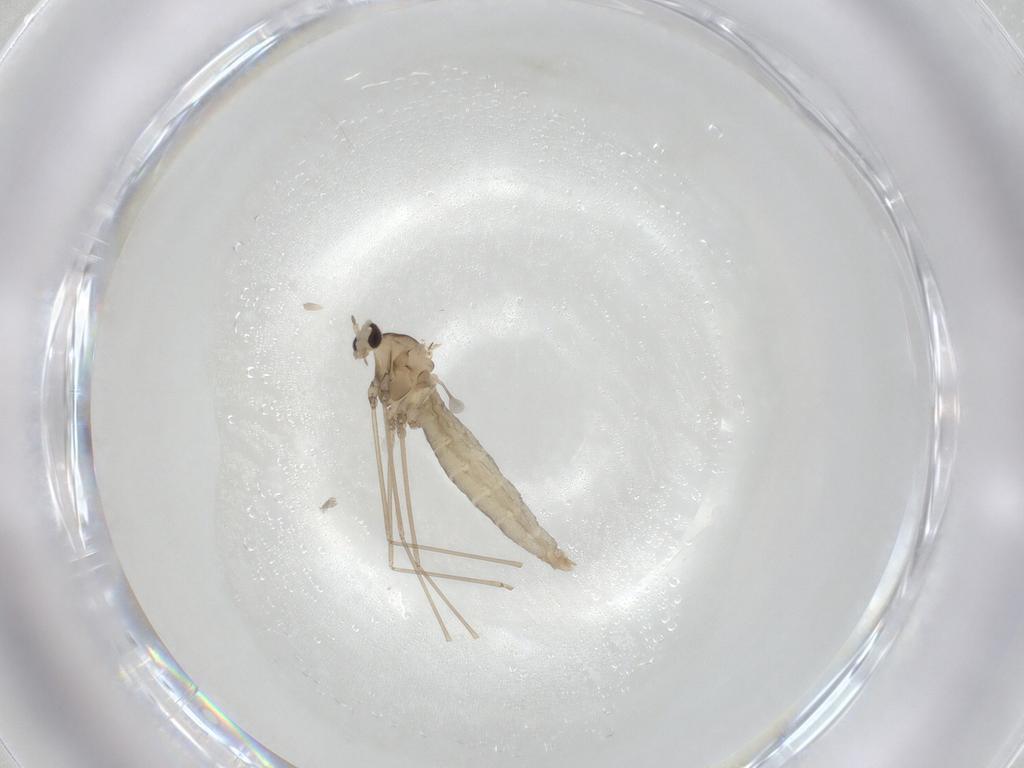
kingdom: Animalia
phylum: Arthropoda
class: Insecta
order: Diptera
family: Cecidomyiidae
